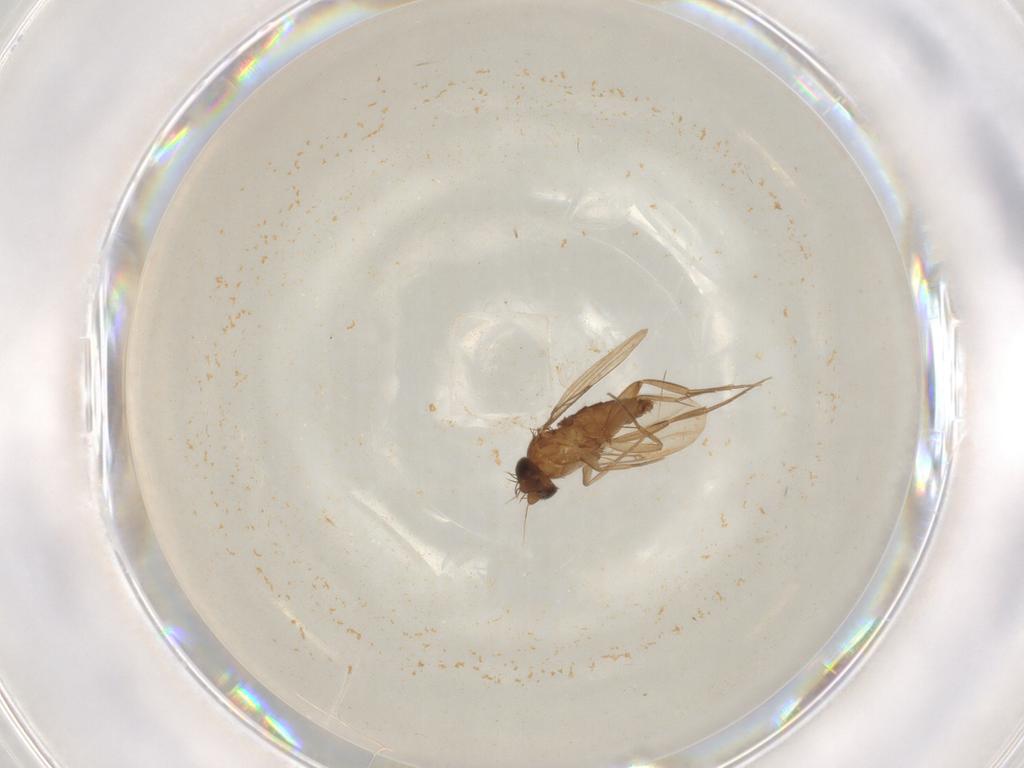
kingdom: Animalia
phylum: Arthropoda
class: Insecta
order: Diptera
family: Phoridae
